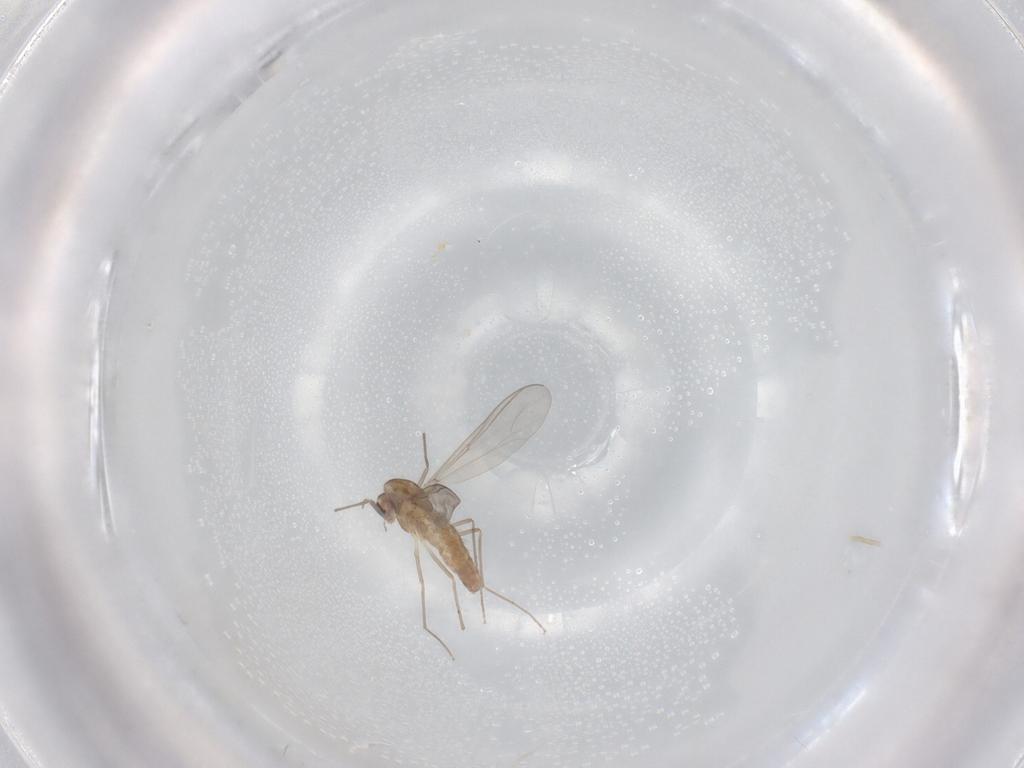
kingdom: Animalia
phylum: Arthropoda
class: Insecta
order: Diptera
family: Chironomidae
